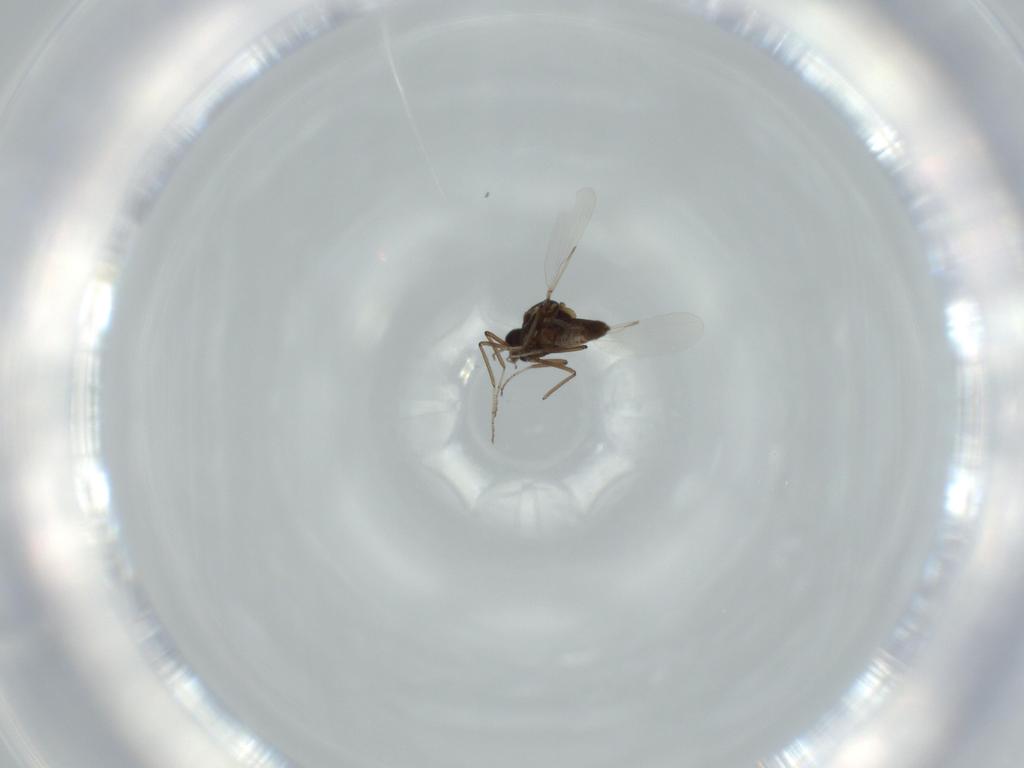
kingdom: Animalia
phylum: Arthropoda
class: Insecta
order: Diptera
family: Ceratopogonidae
